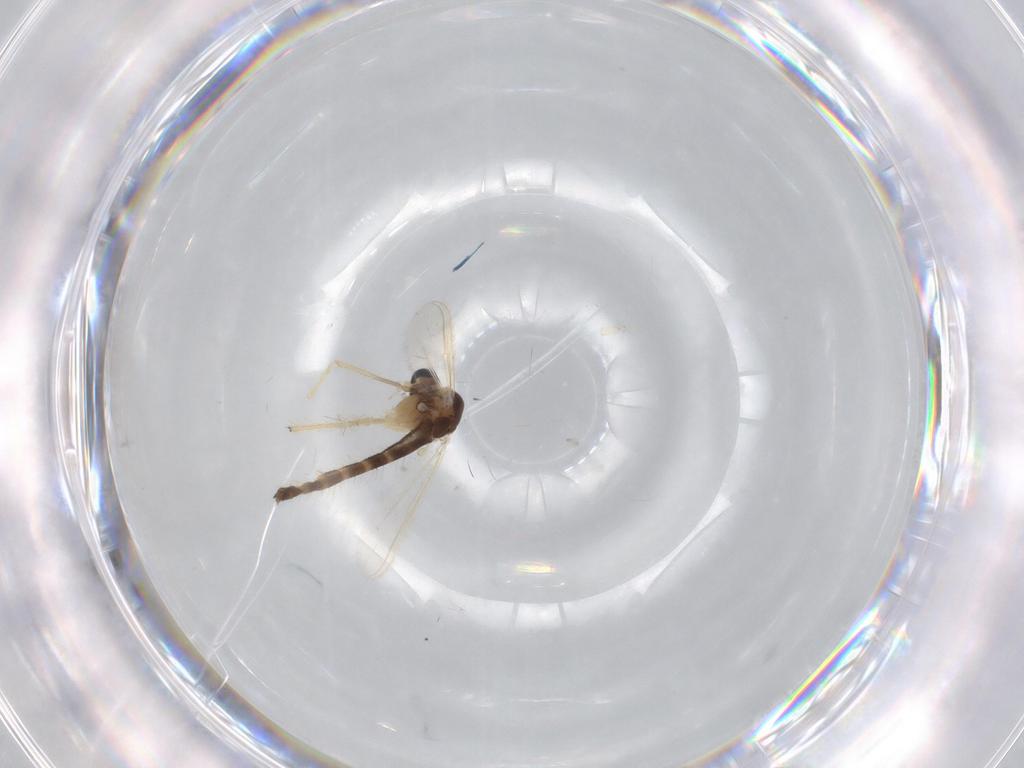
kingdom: Animalia
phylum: Arthropoda
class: Insecta
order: Diptera
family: Chironomidae
